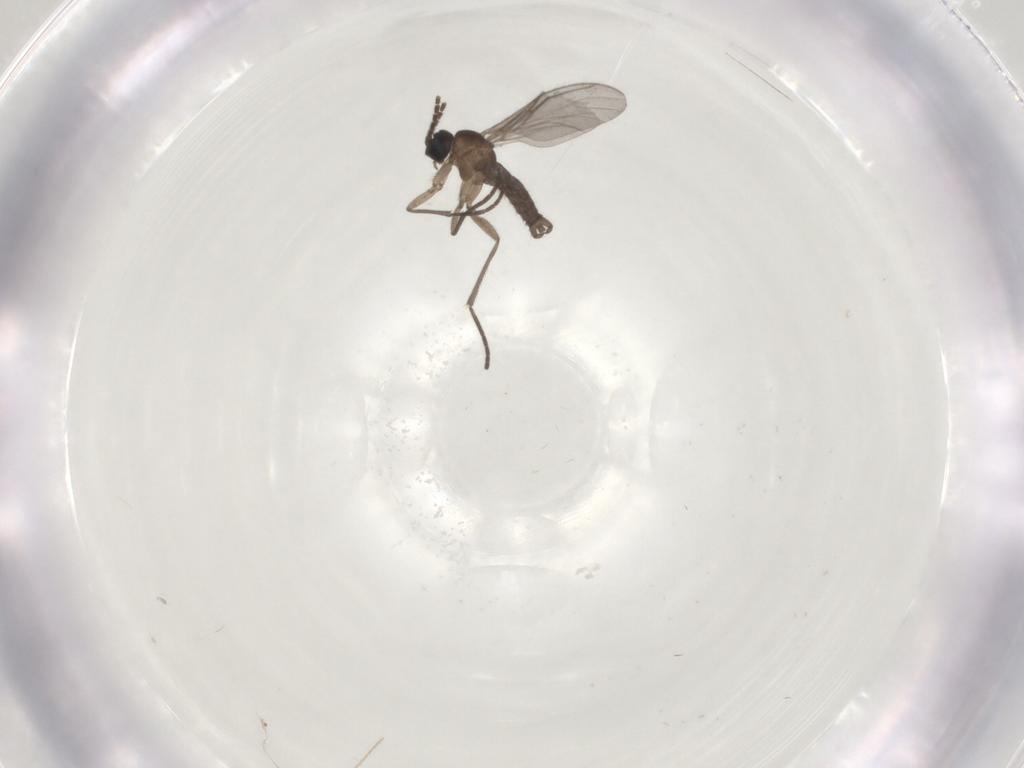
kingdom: Animalia
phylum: Arthropoda
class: Insecta
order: Diptera
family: Sciaridae
